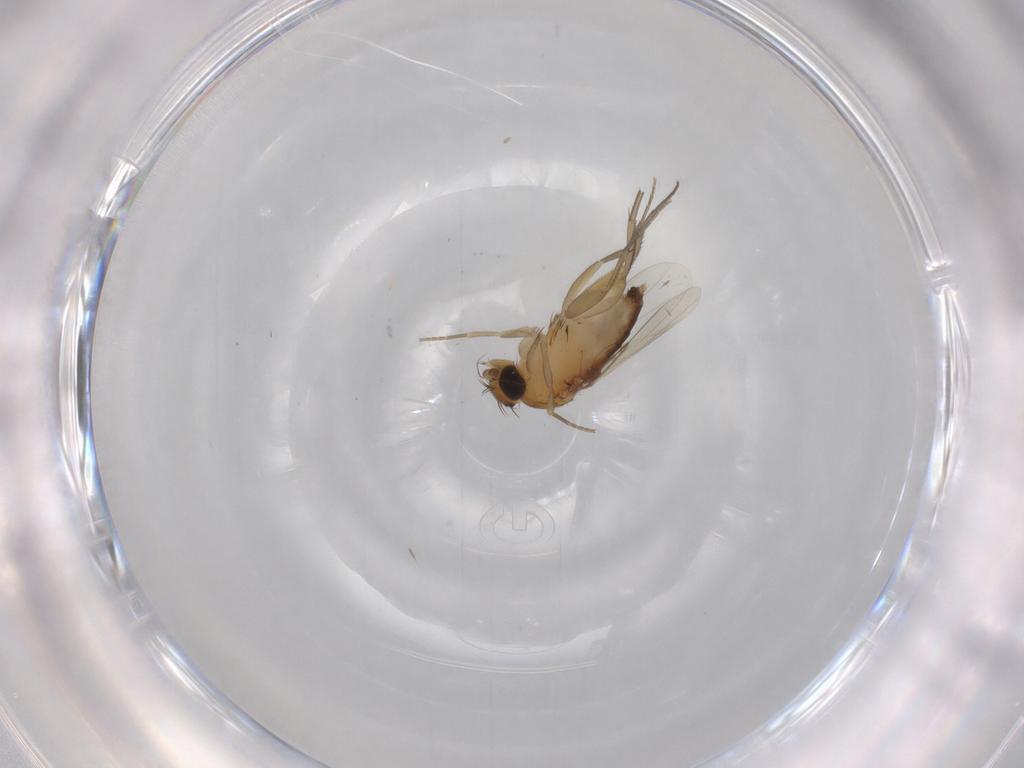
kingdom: Animalia
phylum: Arthropoda
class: Insecta
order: Diptera
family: Phoridae
